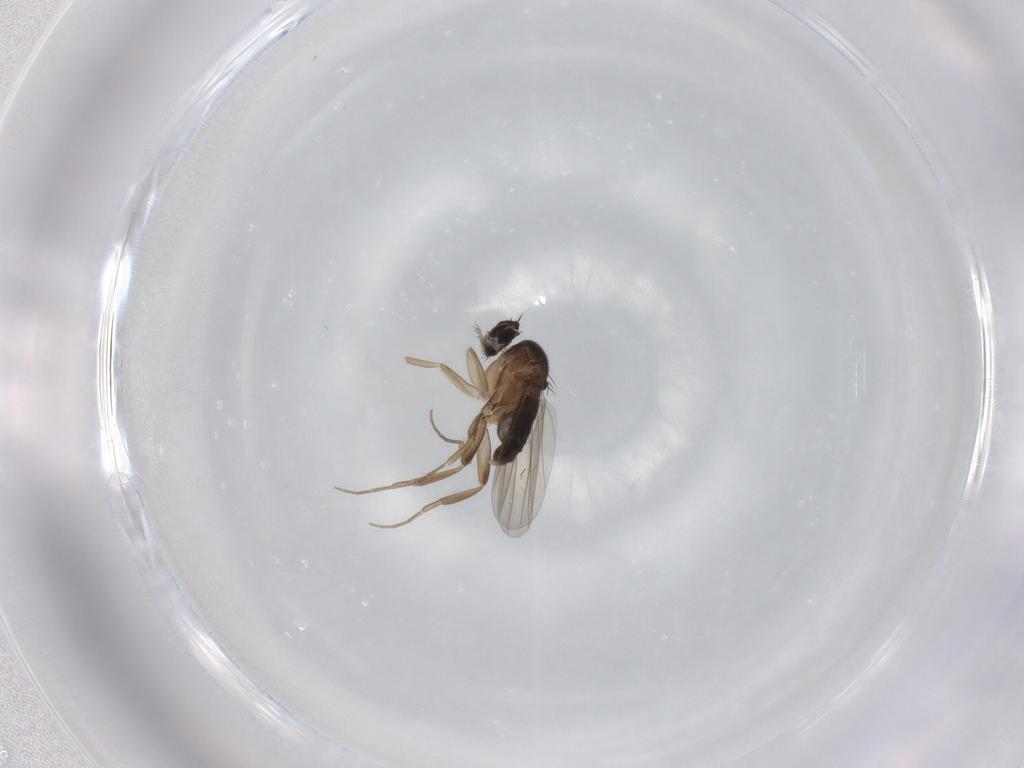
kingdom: Animalia
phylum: Arthropoda
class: Insecta
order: Diptera
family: Phoridae
